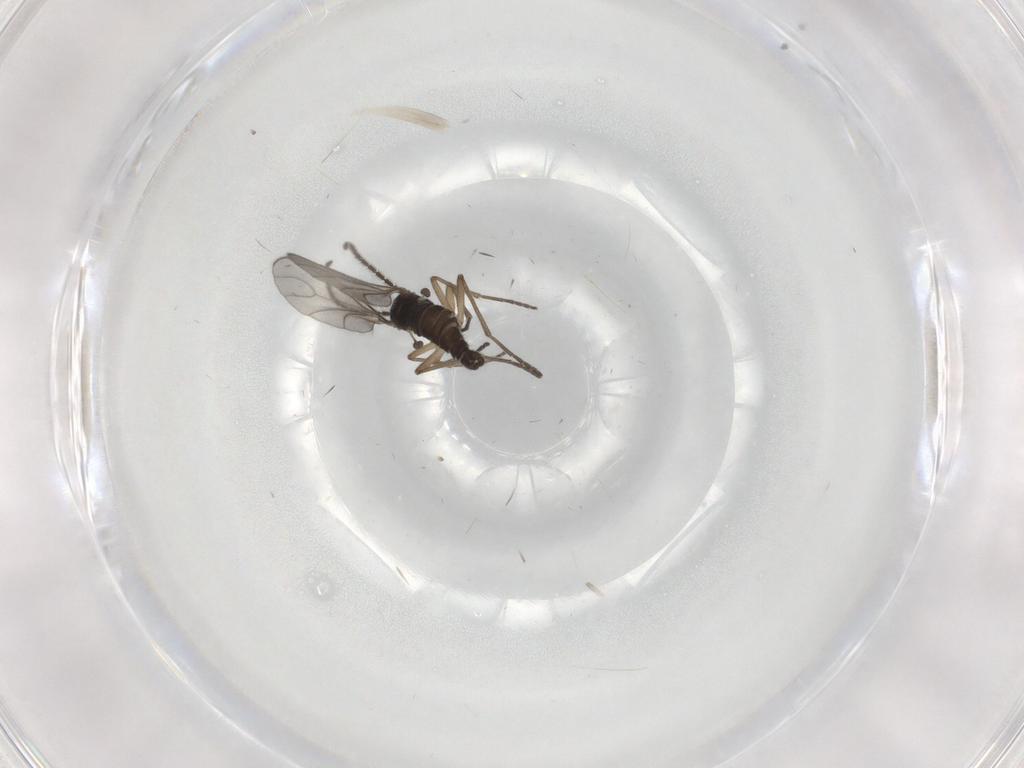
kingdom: Animalia
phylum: Arthropoda
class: Insecta
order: Diptera
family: Sciaridae
